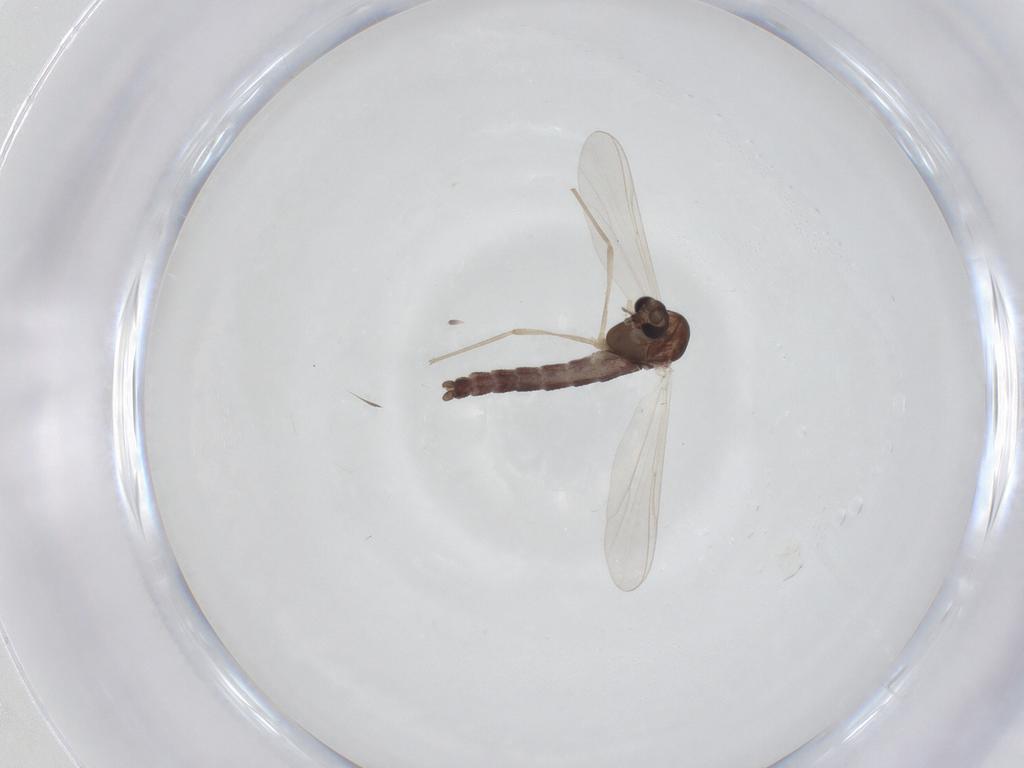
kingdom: Animalia
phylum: Arthropoda
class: Insecta
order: Diptera
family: Chironomidae
